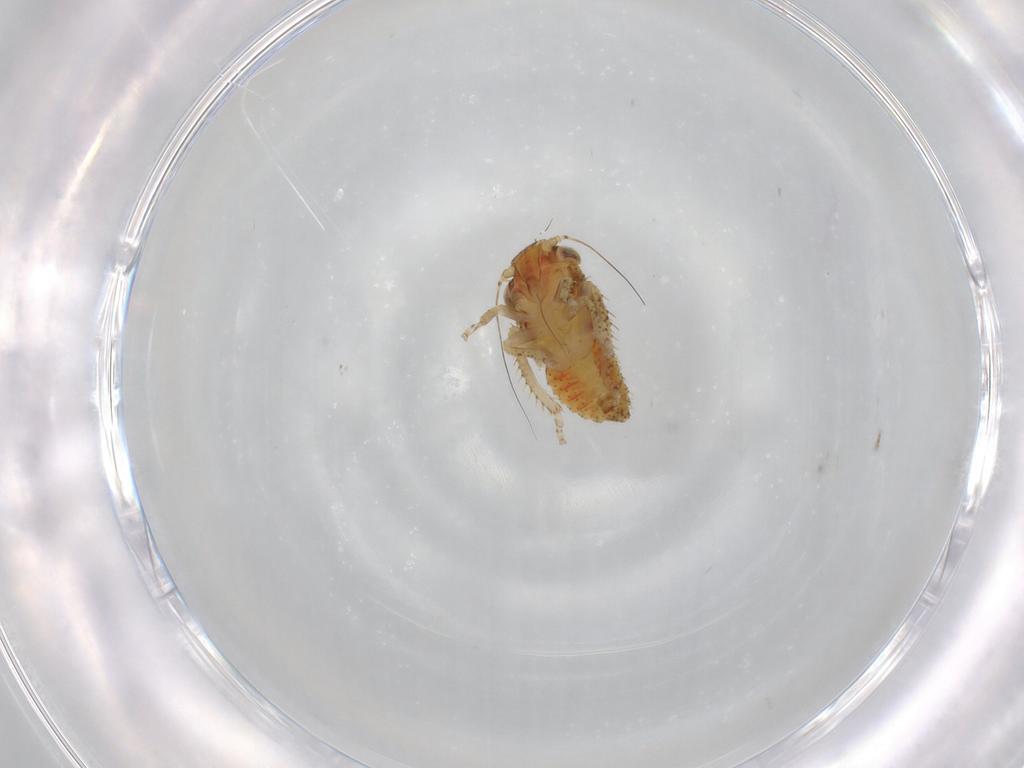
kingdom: Animalia
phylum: Arthropoda
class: Insecta
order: Hemiptera
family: Cicadellidae
